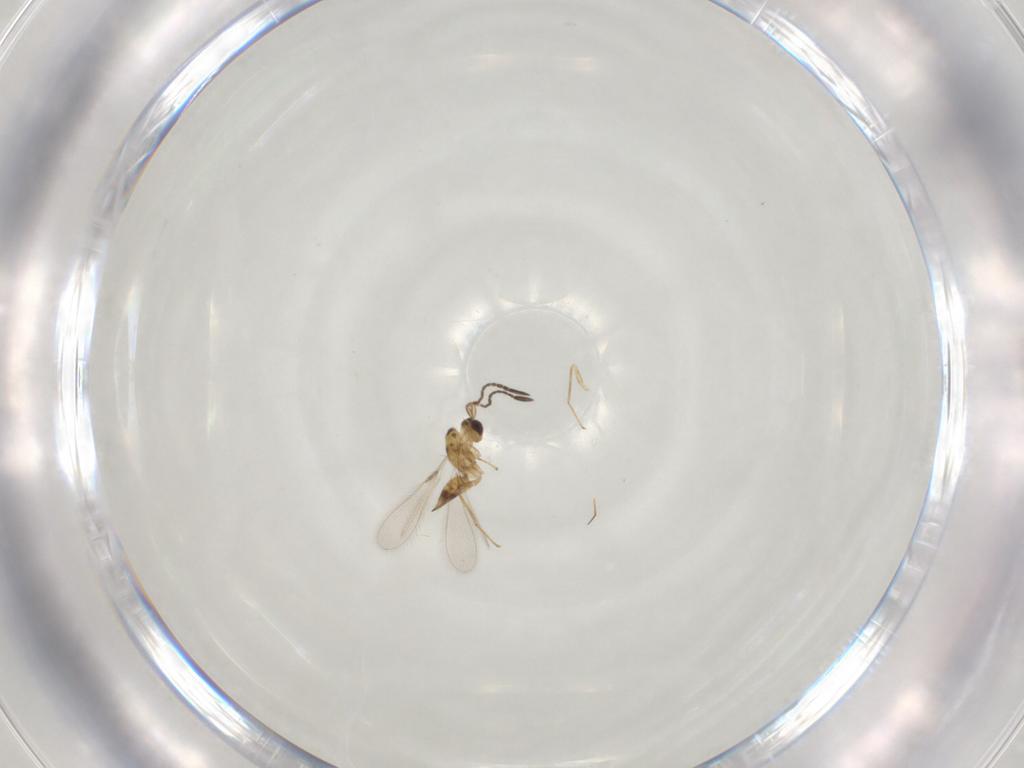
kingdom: Animalia
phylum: Arthropoda
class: Insecta
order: Hymenoptera
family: Mymaridae
